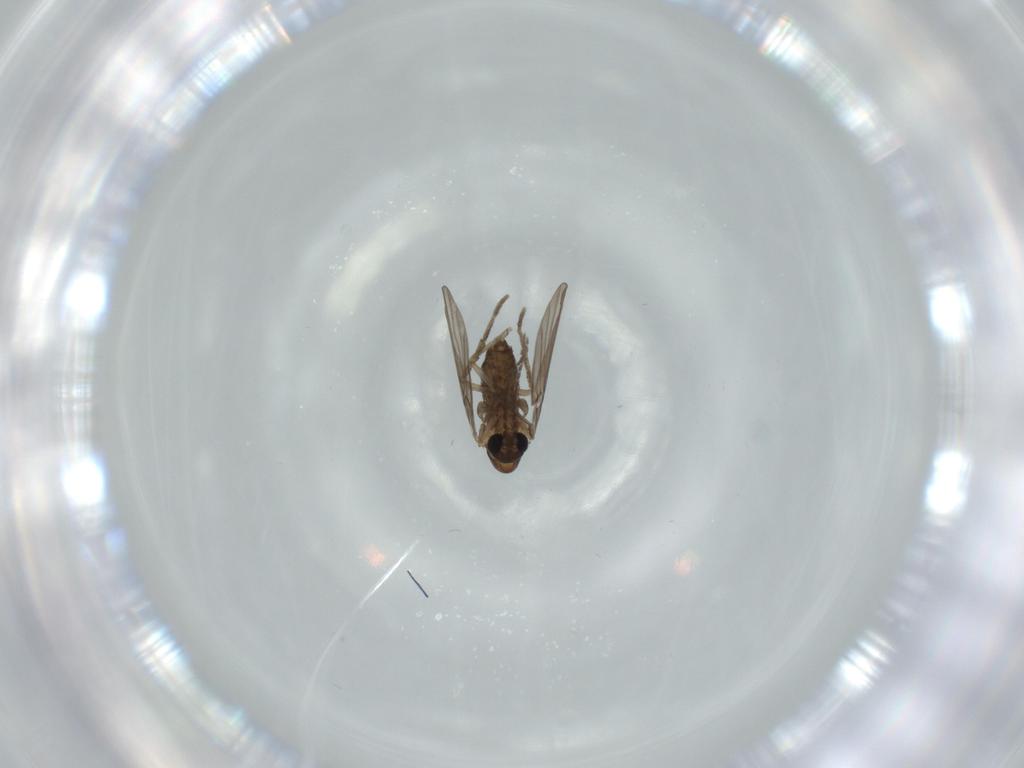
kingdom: Animalia
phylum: Arthropoda
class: Insecta
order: Diptera
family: Psychodidae
